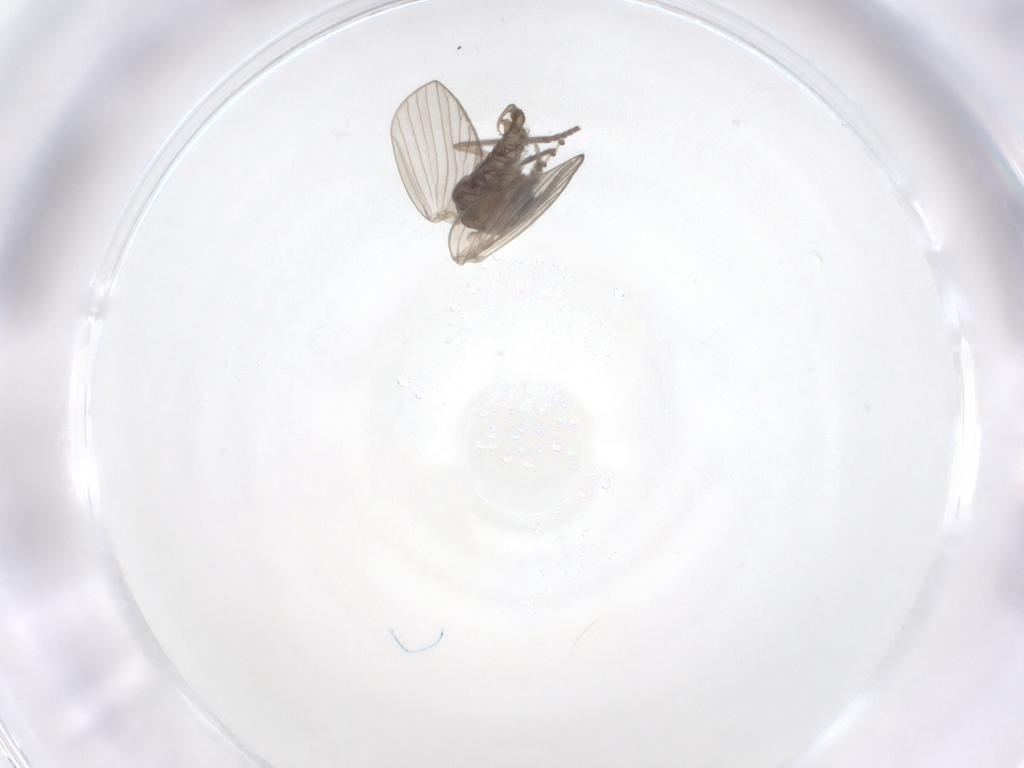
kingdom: Animalia
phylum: Arthropoda
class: Insecta
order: Diptera
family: Psychodidae
